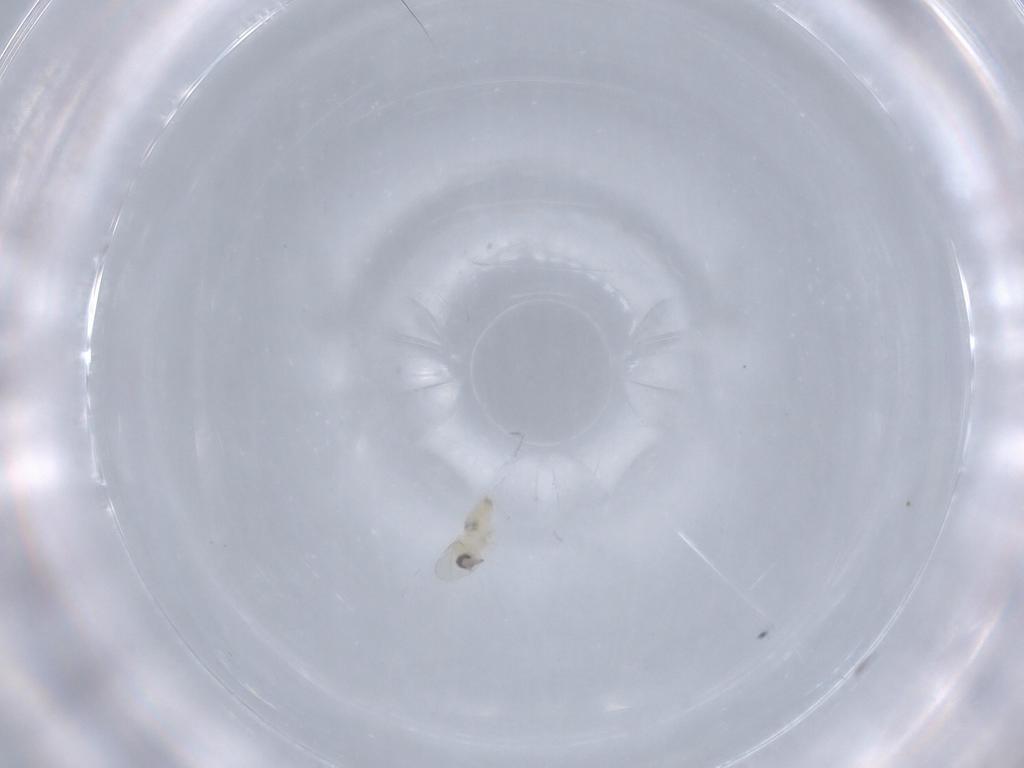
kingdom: Animalia
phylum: Arthropoda
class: Insecta
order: Diptera
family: Cecidomyiidae
